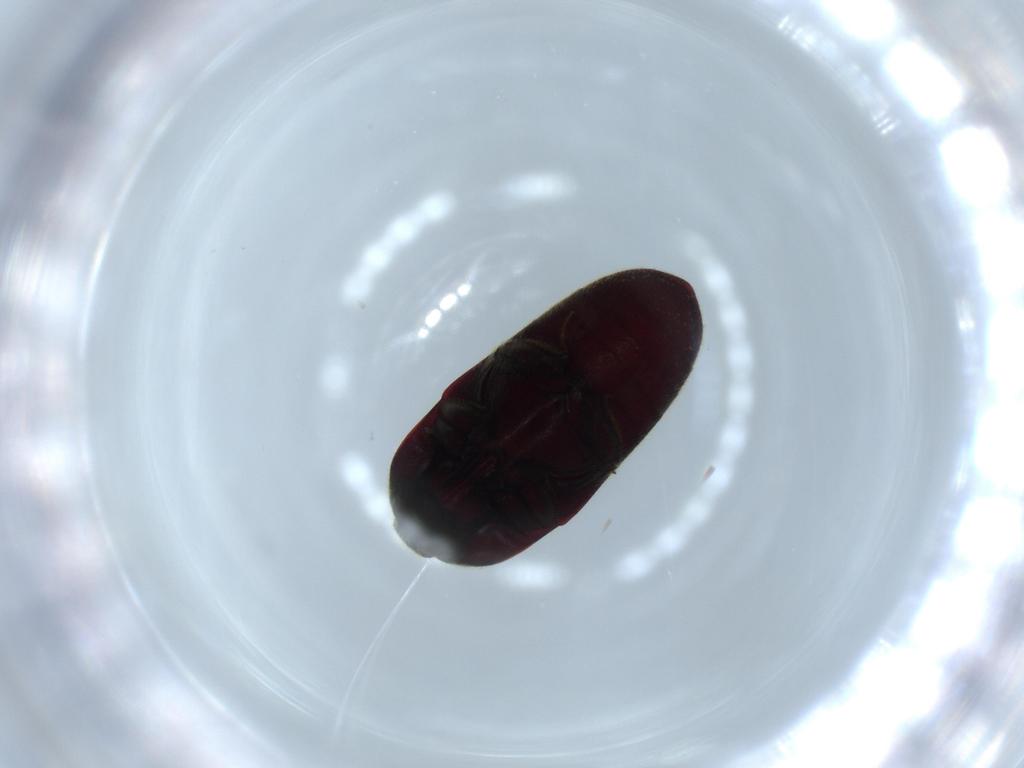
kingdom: Animalia
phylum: Arthropoda
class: Insecta
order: Coleoptera
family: Throscidae
